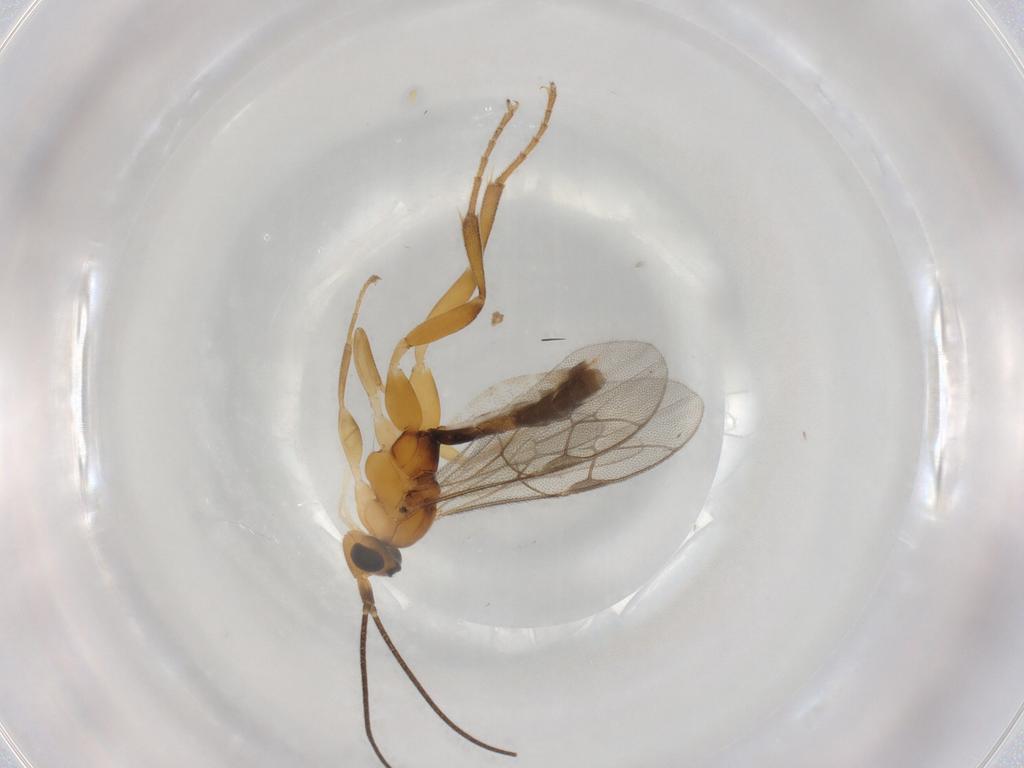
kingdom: Animalia
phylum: Arthropoda
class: Insecta
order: Hymenoptera
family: Ichneumonidae
